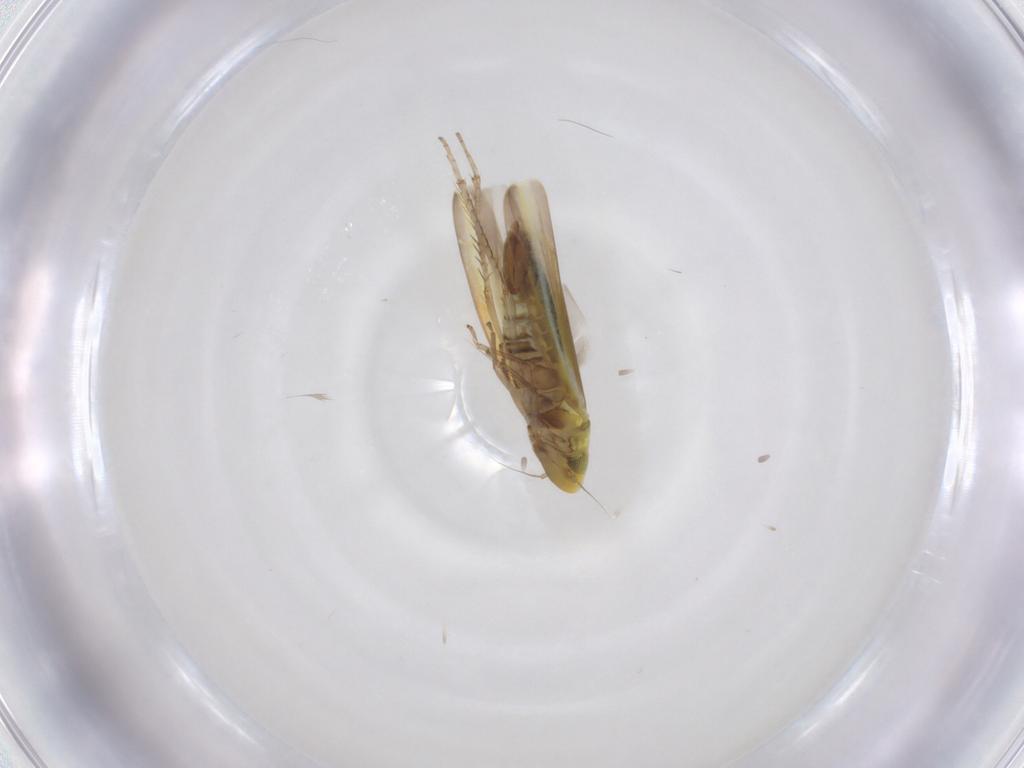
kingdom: Animalia
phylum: Arthropoda
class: Insecta
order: Hemiptera
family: Cicadellidae
